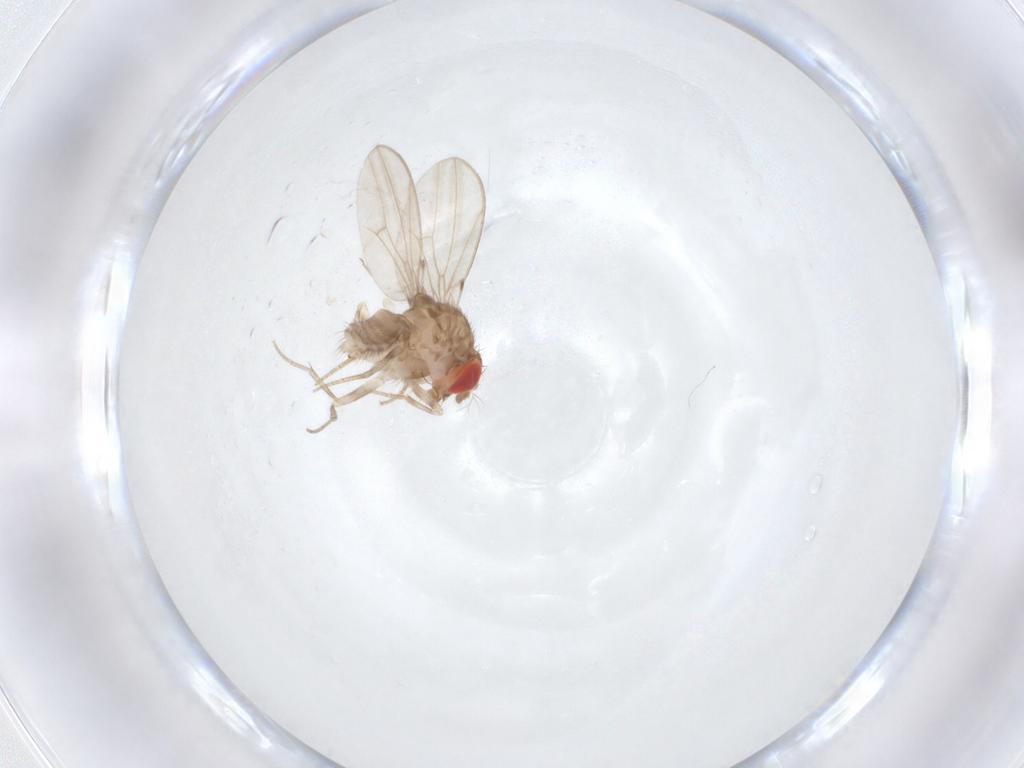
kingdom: Animalia
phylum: Arthropoda
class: Insecta
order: Diptera
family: Drosophilidae
